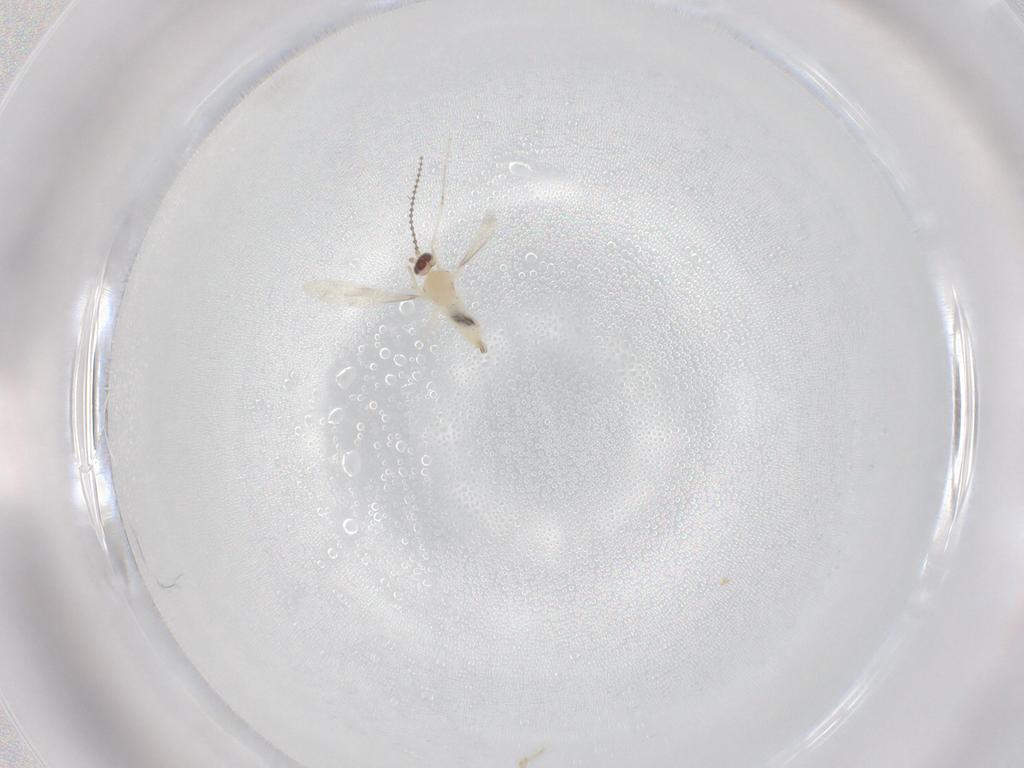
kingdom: Animalia
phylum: Arthropoda
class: Insecta
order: Diptera
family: Cecidomyiidae
